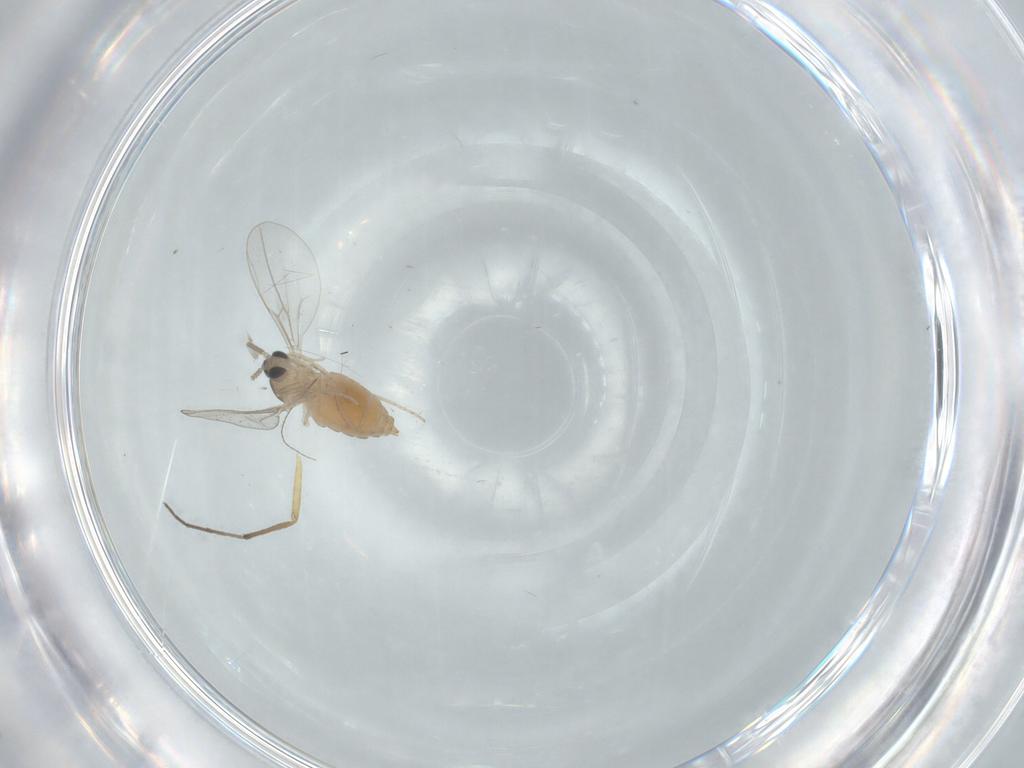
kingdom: Animalia
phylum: Arthropoda
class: Insecta
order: Diptera
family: Cecidomyiidae
